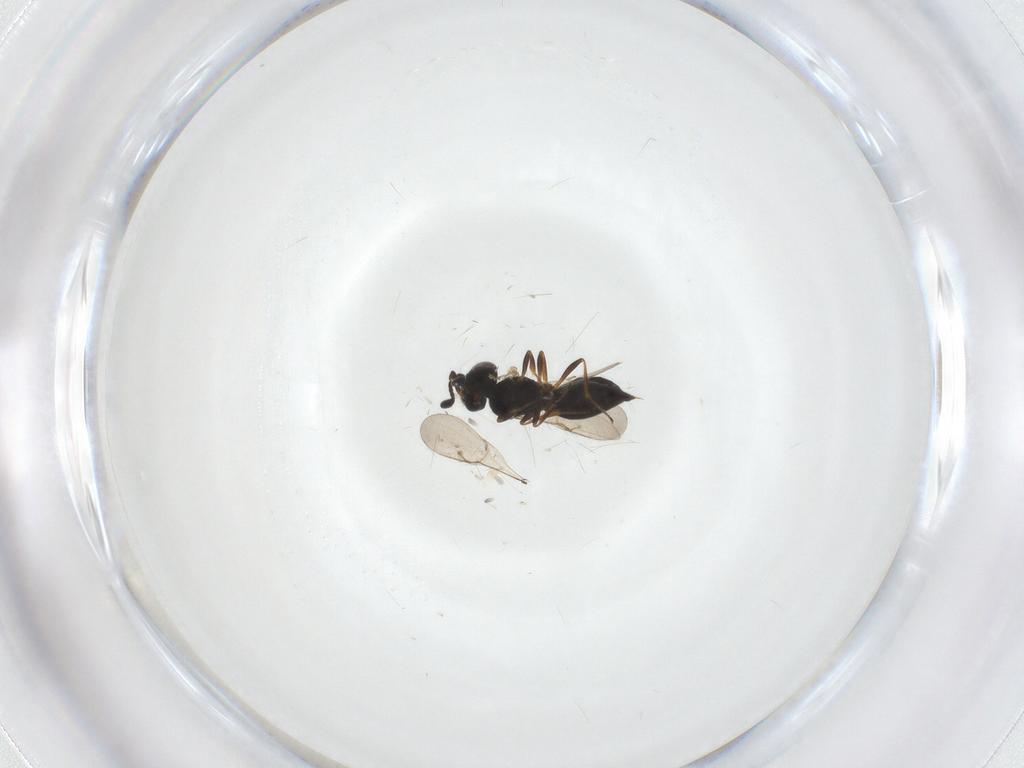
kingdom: Animalia
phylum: Arthropoda
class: Insecta
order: Hymenoptera
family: Scelionidae
